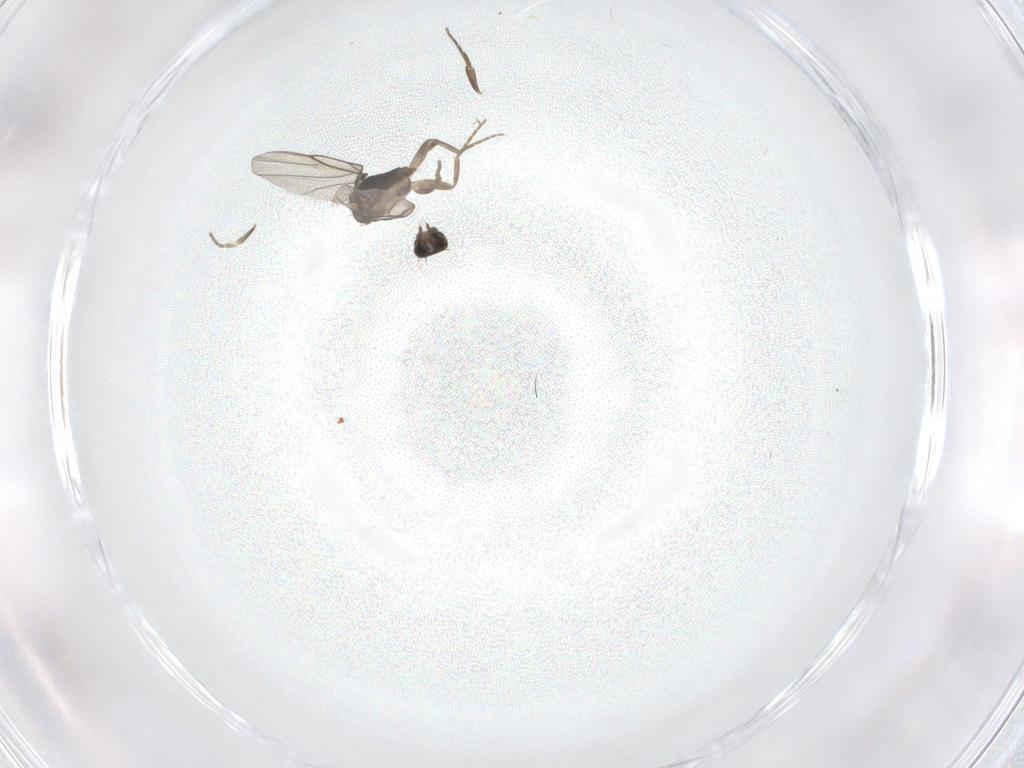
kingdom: Animalia
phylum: Arthropoda
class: Insecta
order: Diptera
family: Phoridae
